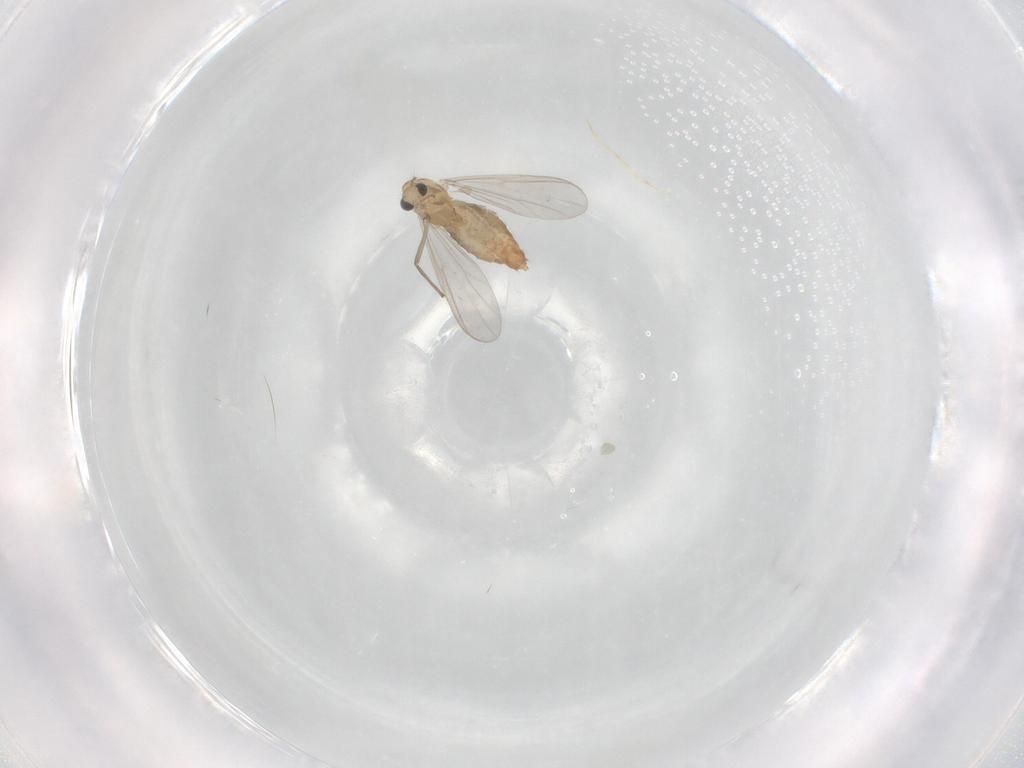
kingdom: Animalia
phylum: Arthropoda
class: Insecta
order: Diptera
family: Chironomidae
